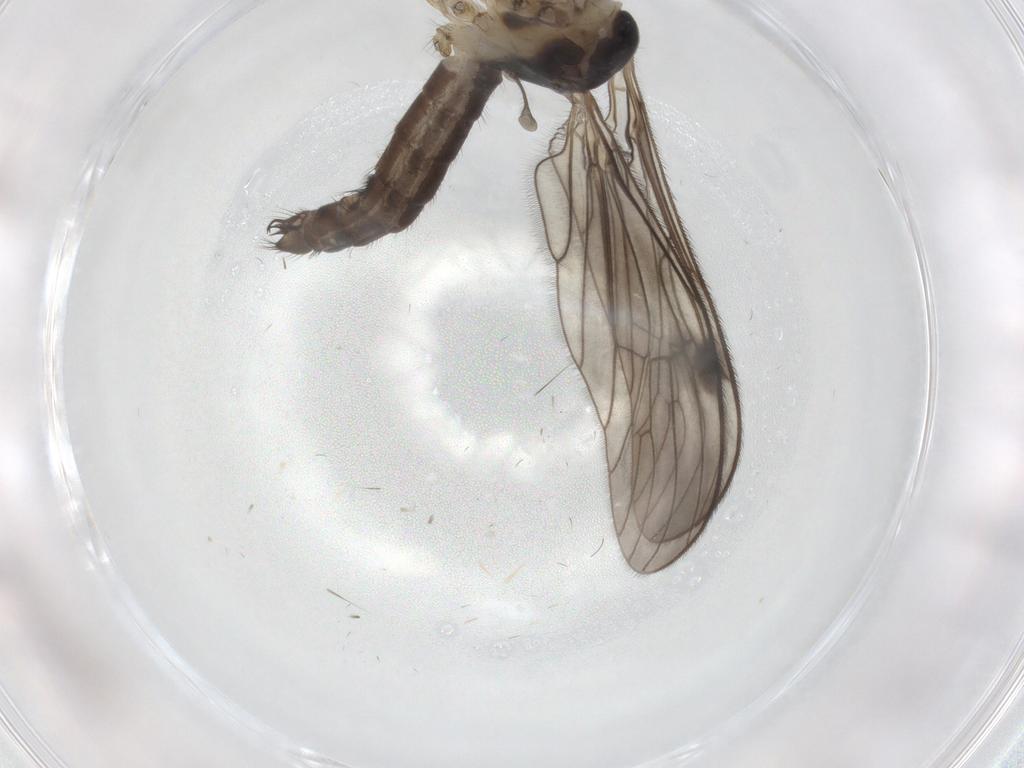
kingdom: Animalia
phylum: Arthropoda
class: Insecta
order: Diptera
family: Limoniidae
